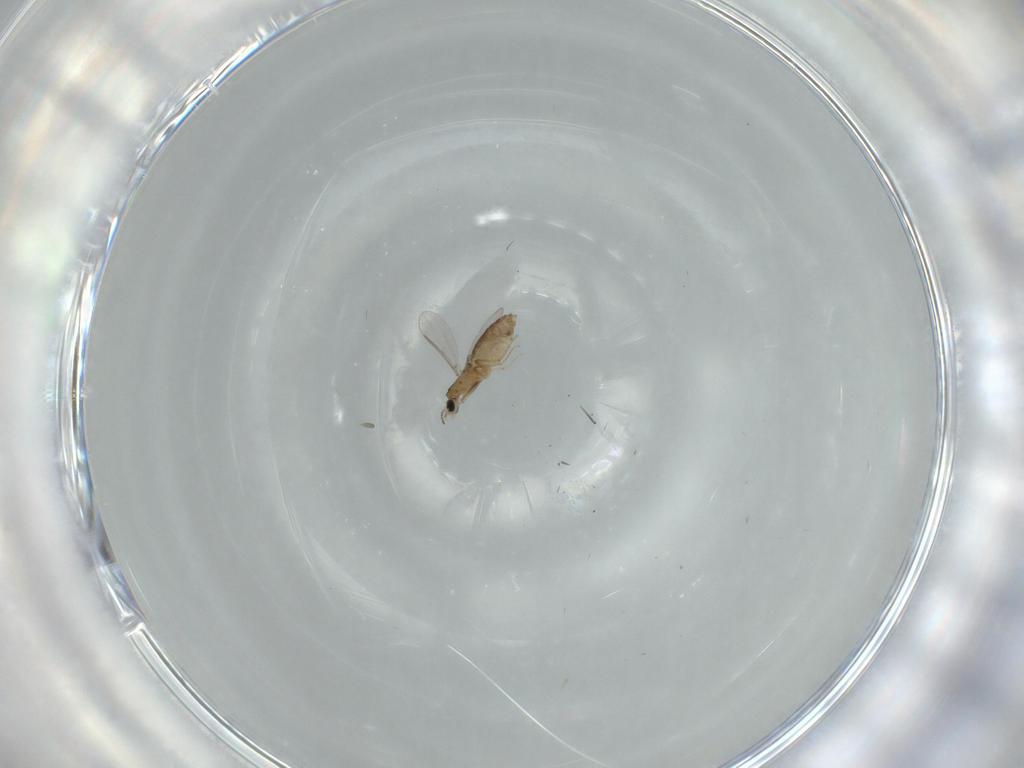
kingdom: Animalia
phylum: Arthropoda
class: Insecta
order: Diptera
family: Chironomidae
